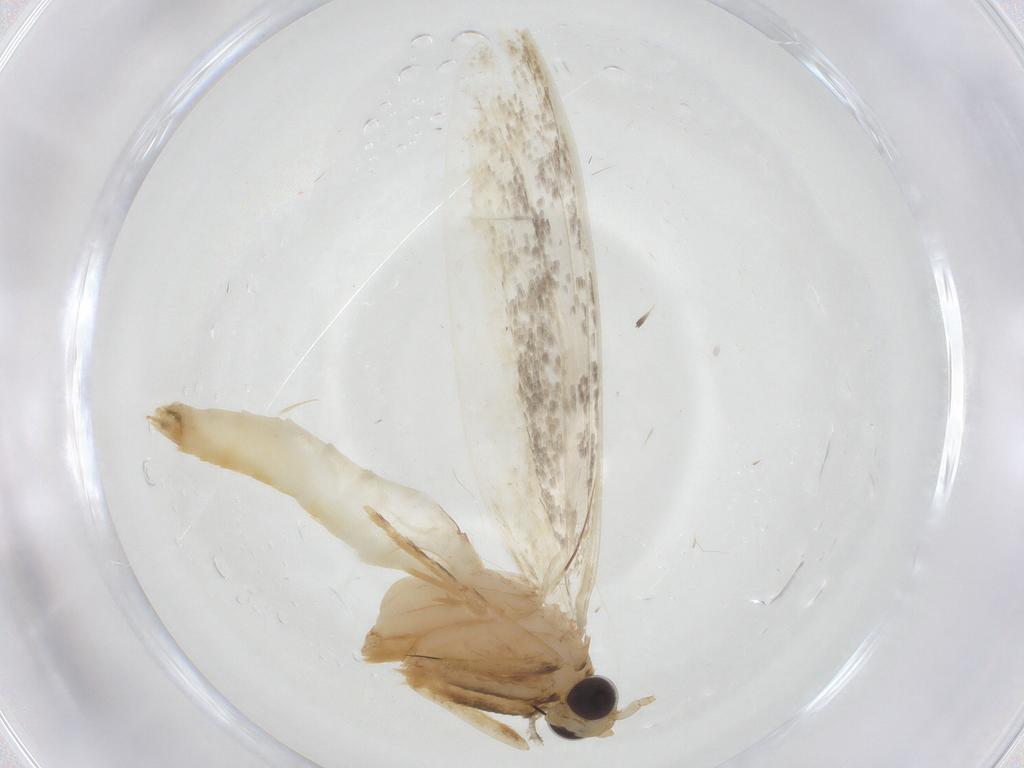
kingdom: Animalia
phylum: Arthropoda
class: Insecta
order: Lepidoptera
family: Tineidae
